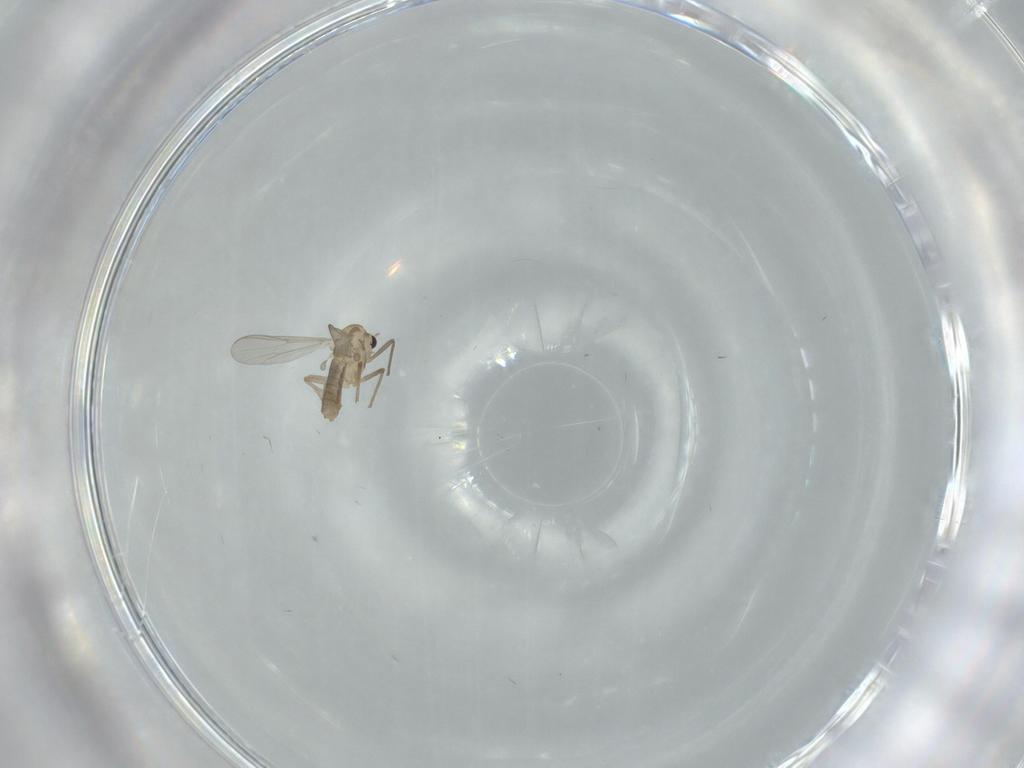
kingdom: Animalia
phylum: Arthropoda
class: Insecta
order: Diptera
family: Chironomidae
